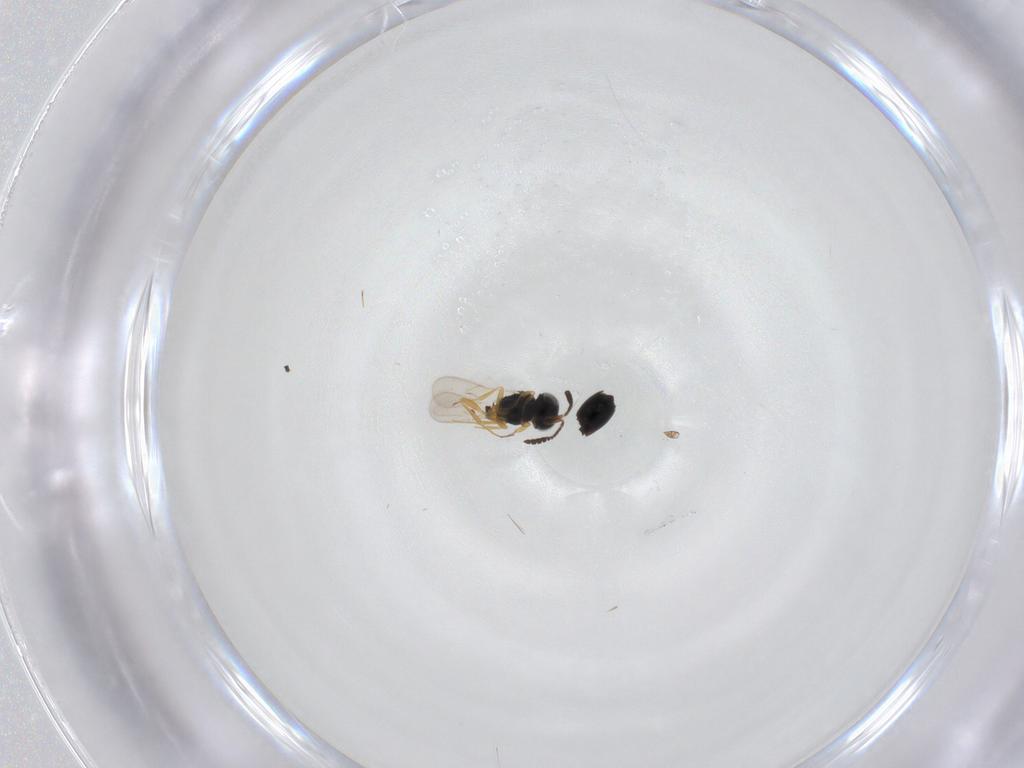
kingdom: Animalia
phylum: Arthropoda
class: Insecta
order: Hymenoptera
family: Scelionidae
